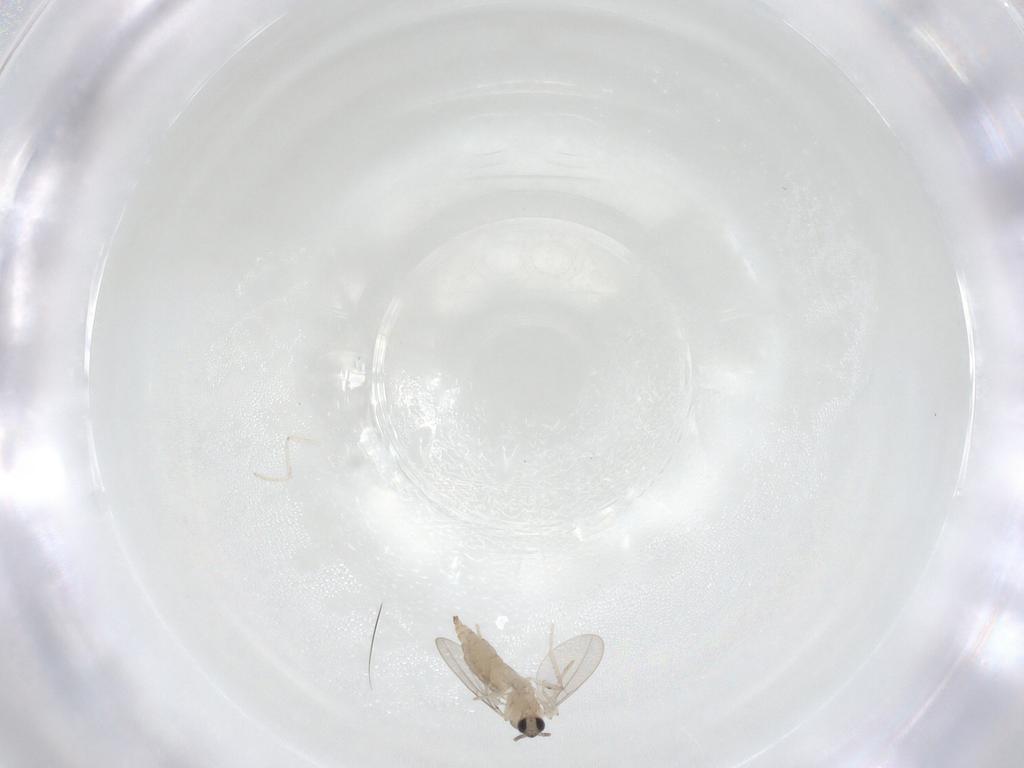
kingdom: Animalia
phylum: Arthropoda
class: Insecta
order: Diptera
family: Cecidomyiidae
